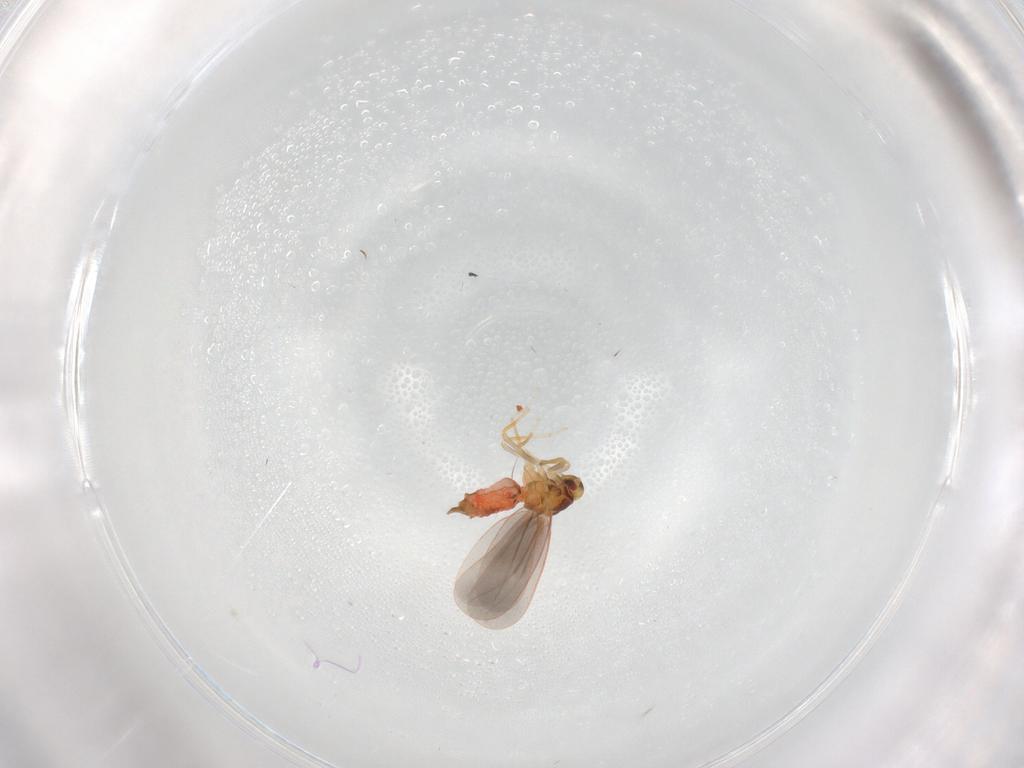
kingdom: Animalia
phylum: Arthropoda
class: Insecta
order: Hemiptera
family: Aleyrodidae
